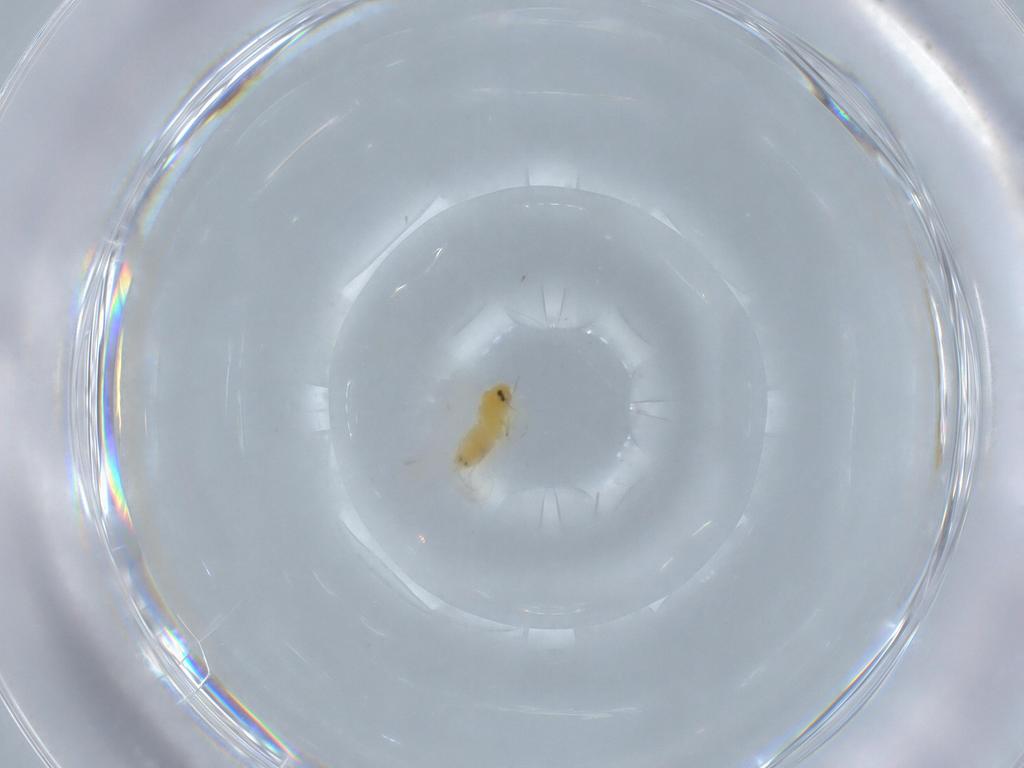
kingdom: Animalia
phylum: Arthropoda
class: Insecta
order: Hemiptera
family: Aleyrodidae
